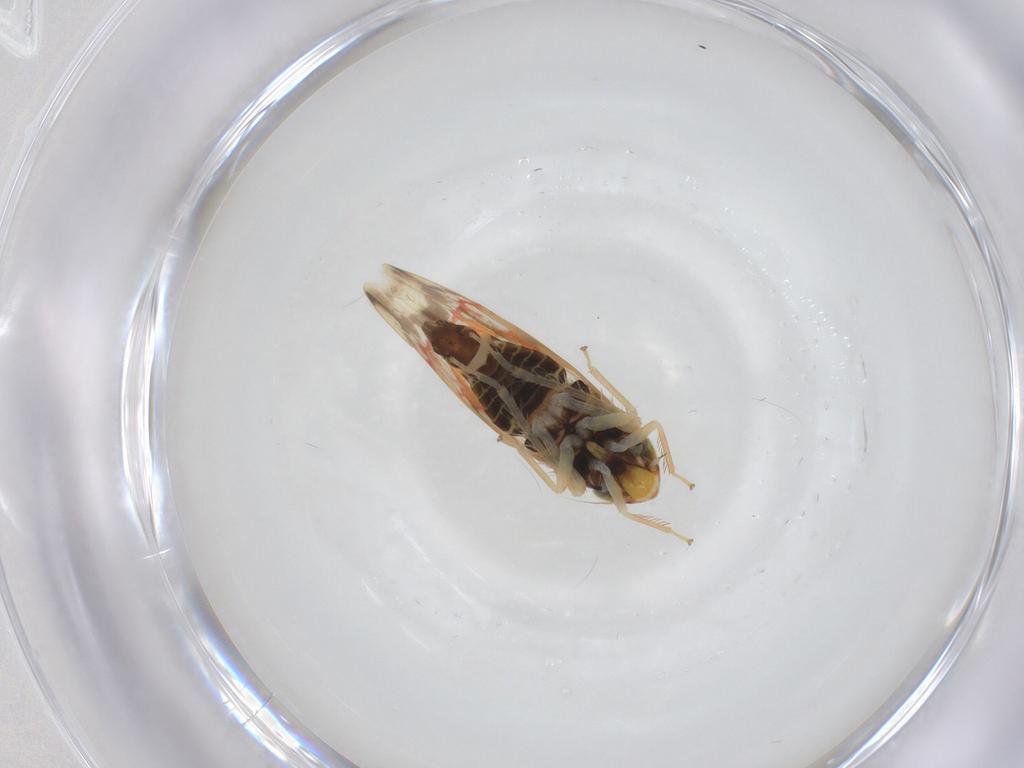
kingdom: Animalia
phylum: Arthropoda
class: Insecta
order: Hemiptera
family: Cicadellidae
